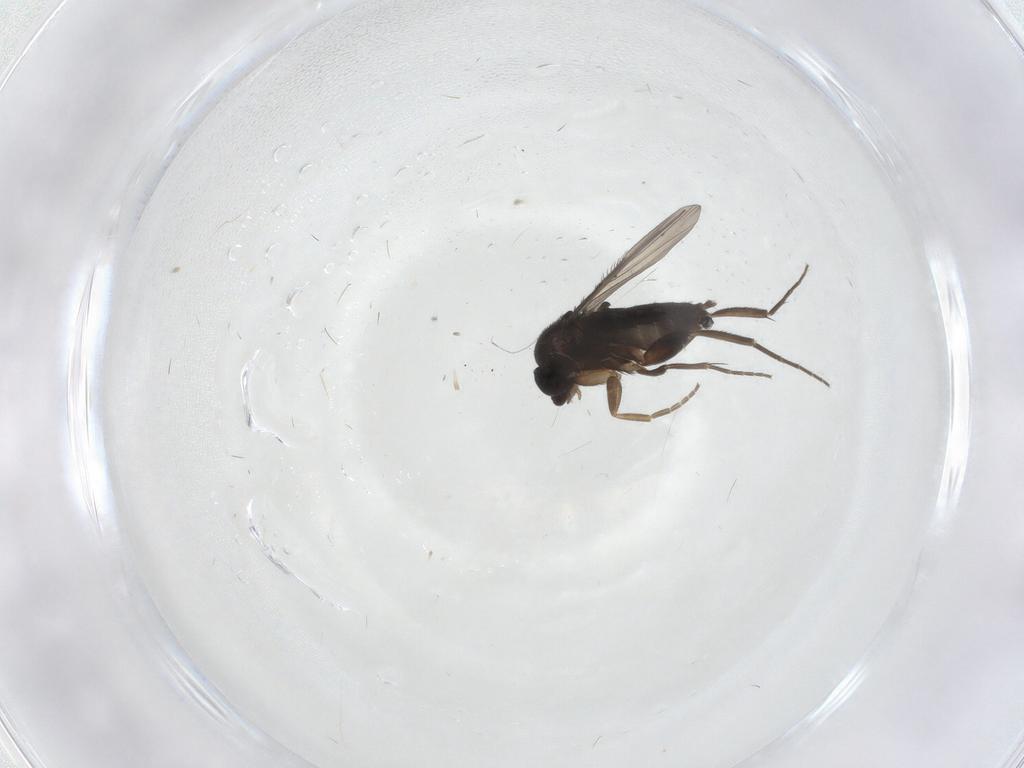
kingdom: Animalia
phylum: Arthropoda
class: Insecta
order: Diptera
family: Phoridae
